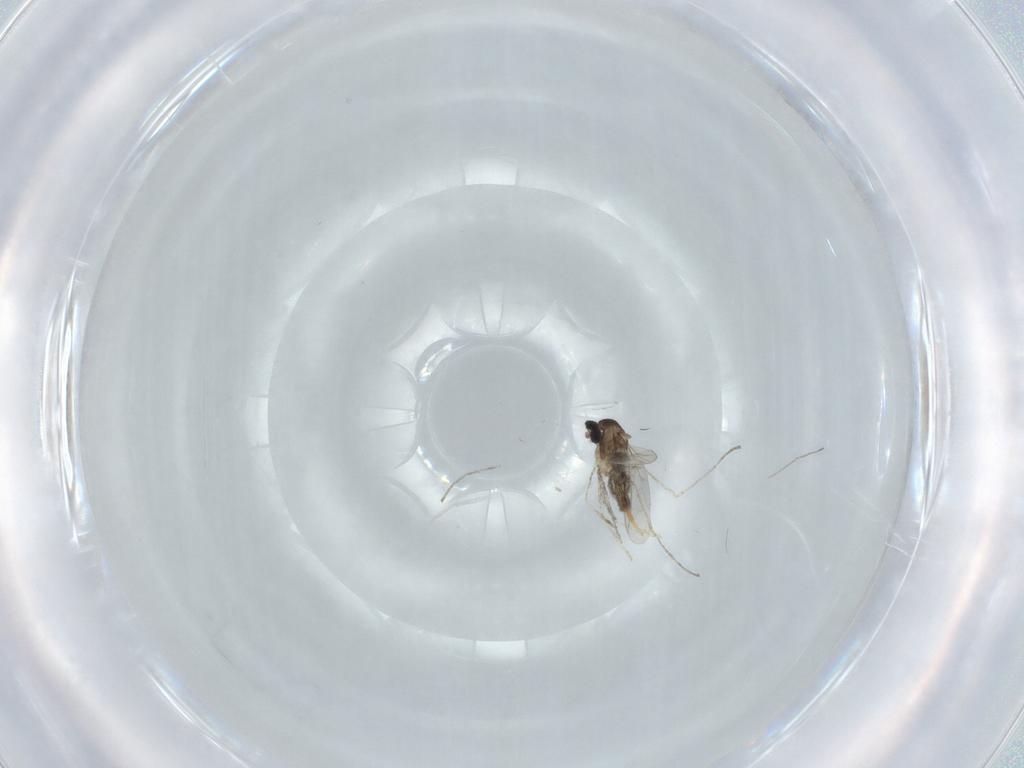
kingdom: Animalia
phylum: Arthropoda
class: Insecta
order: Diptera
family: Cecidomyiidae
